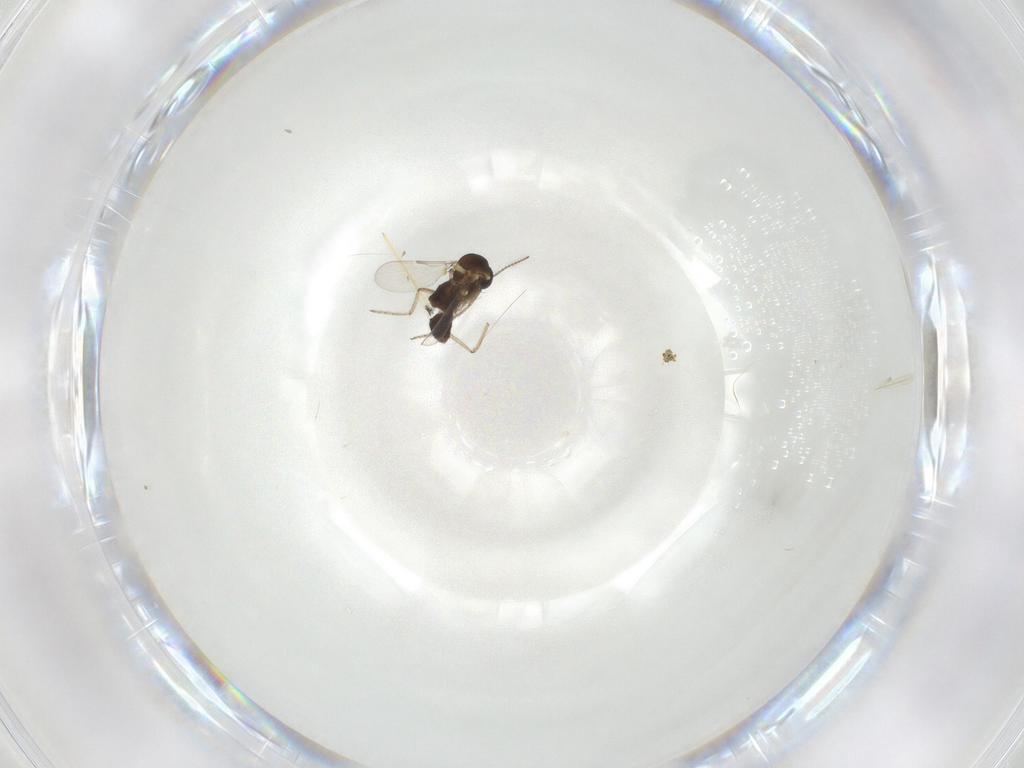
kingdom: Animalia
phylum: Arthropoda
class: Insecta
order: Diptera
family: Ceratopogonidae
